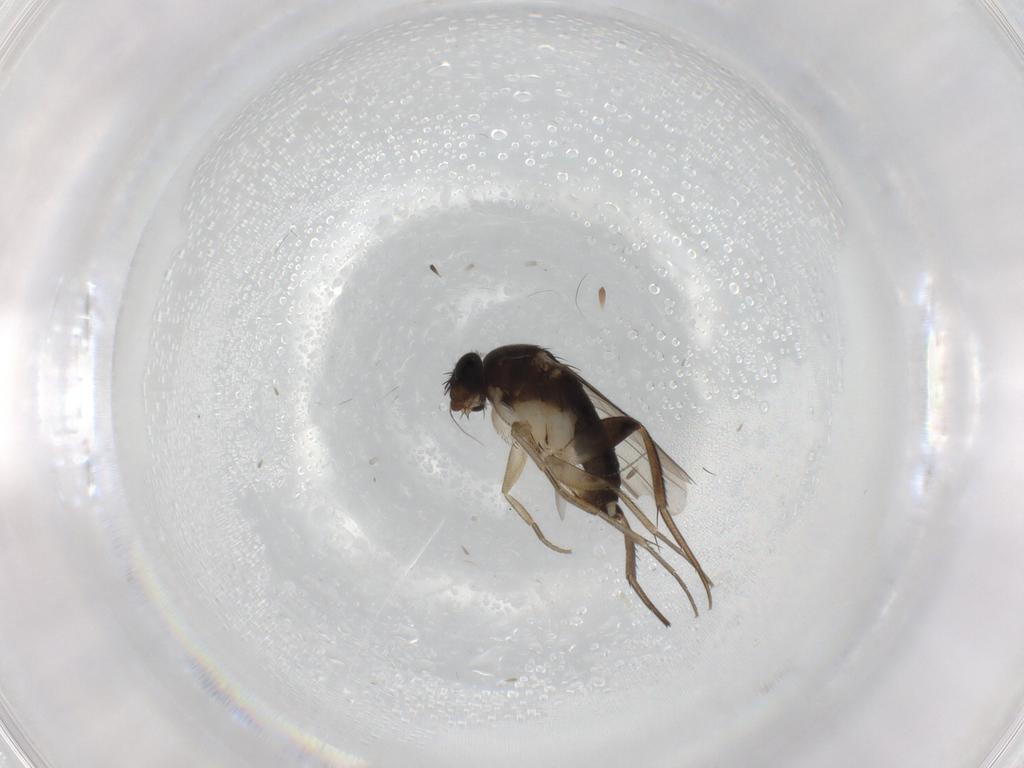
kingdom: Animalia
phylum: Arthropoda
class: Insecta
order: Diptera
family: Phoridae
